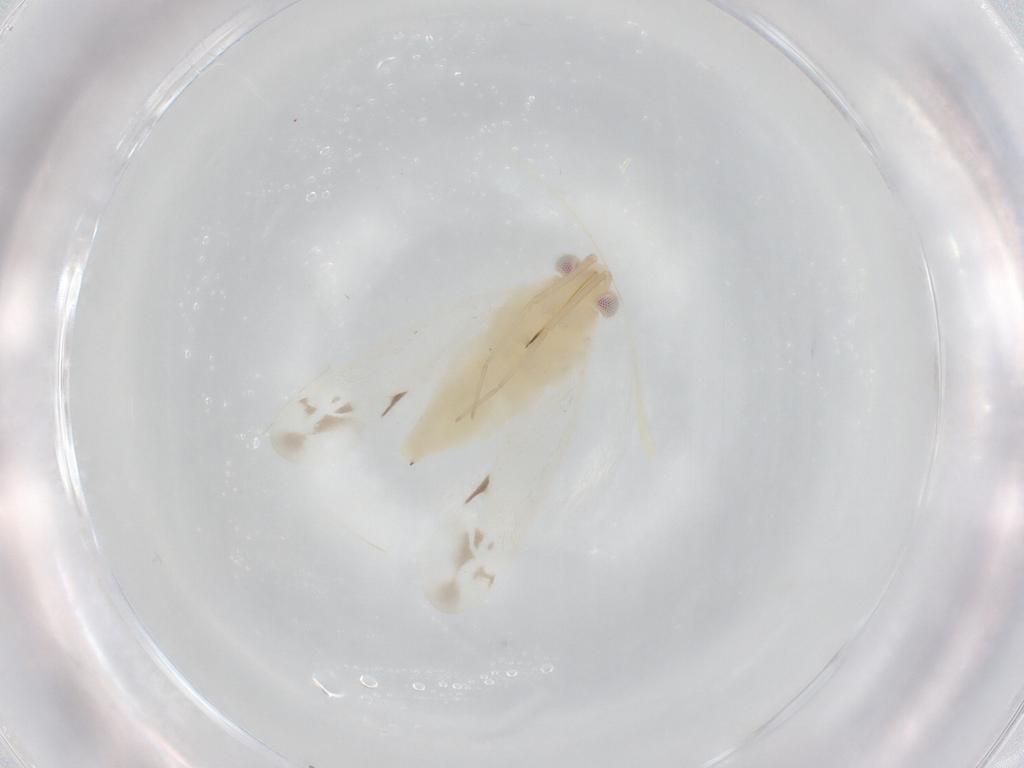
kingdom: Animalia
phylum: Arthropoda
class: Insecta
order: Hemiptera
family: Miridae
